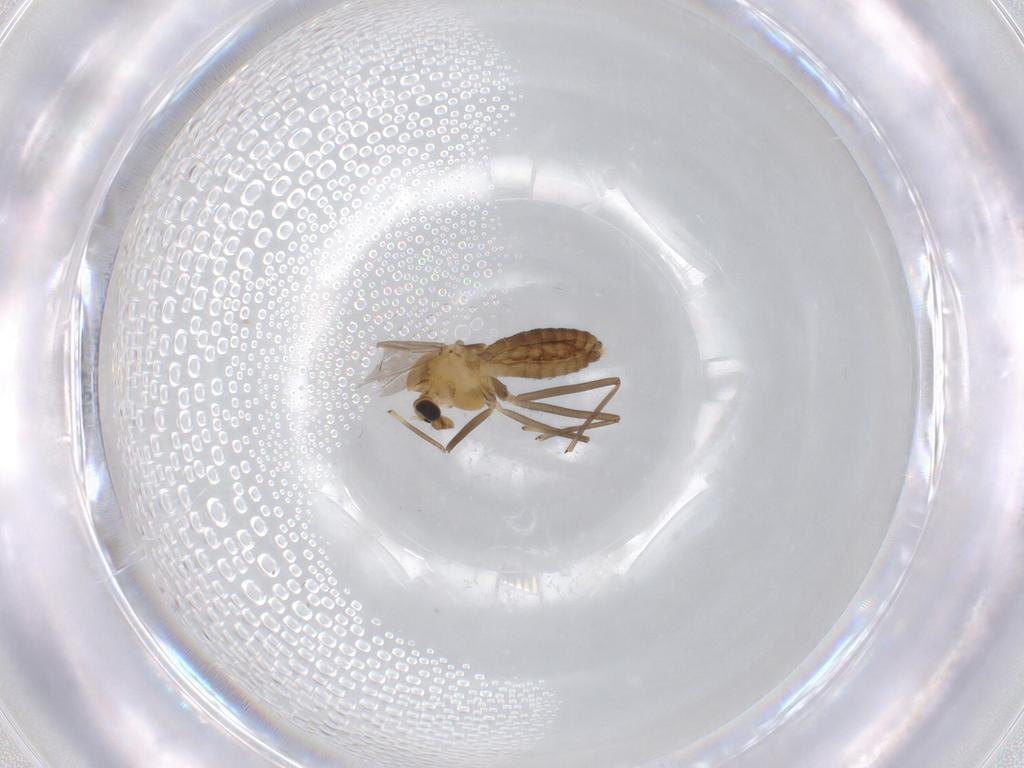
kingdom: Animalia
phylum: Arthropoda
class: Insecta
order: Diptera
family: Chironomidae
